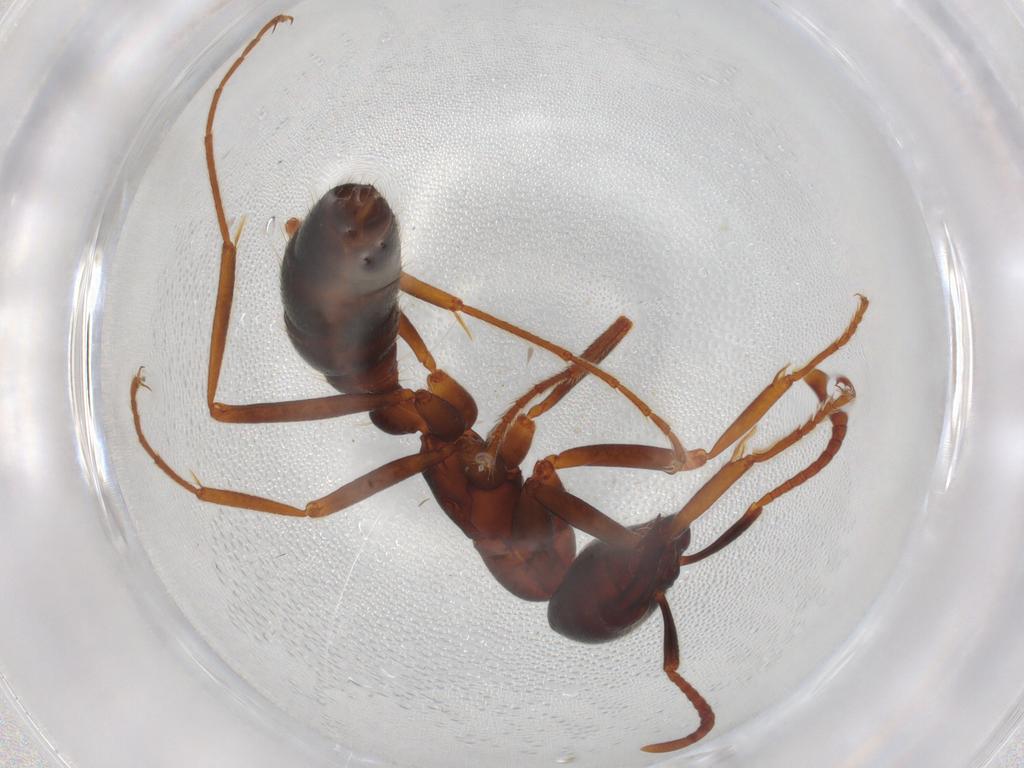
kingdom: Animalia
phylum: Arthropoda
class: Insecta
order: Hymenoptera
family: Formicidae
